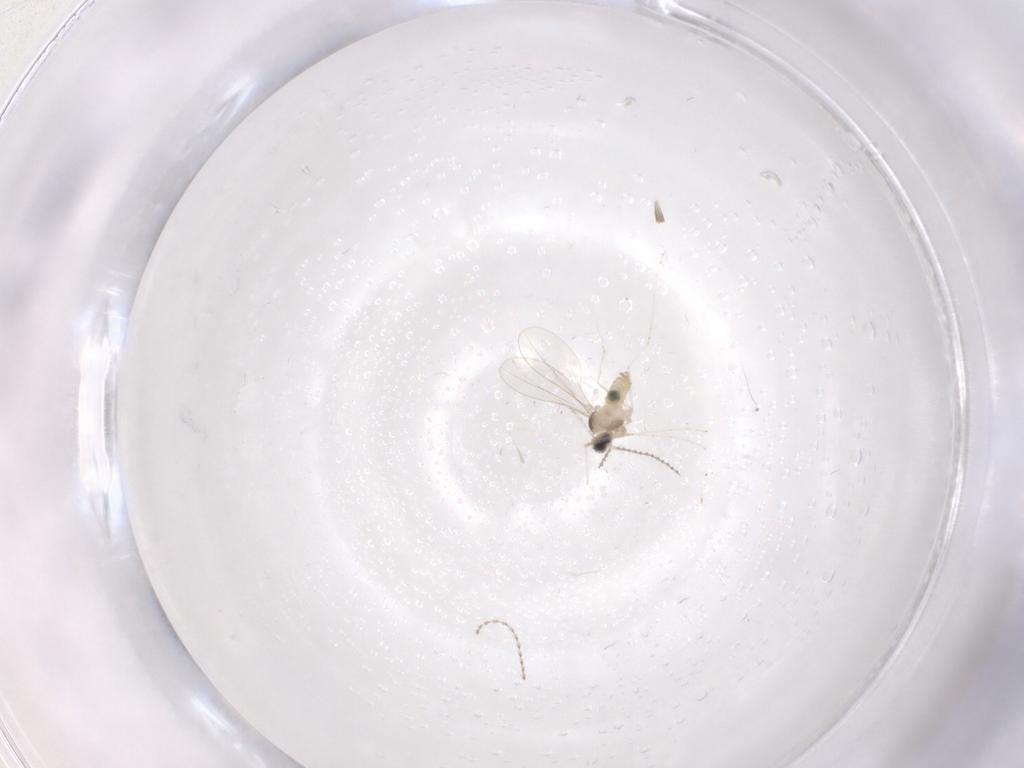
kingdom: Animalia
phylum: Arthropoda
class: Insecta
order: Diptera
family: Cecidomyiidae
